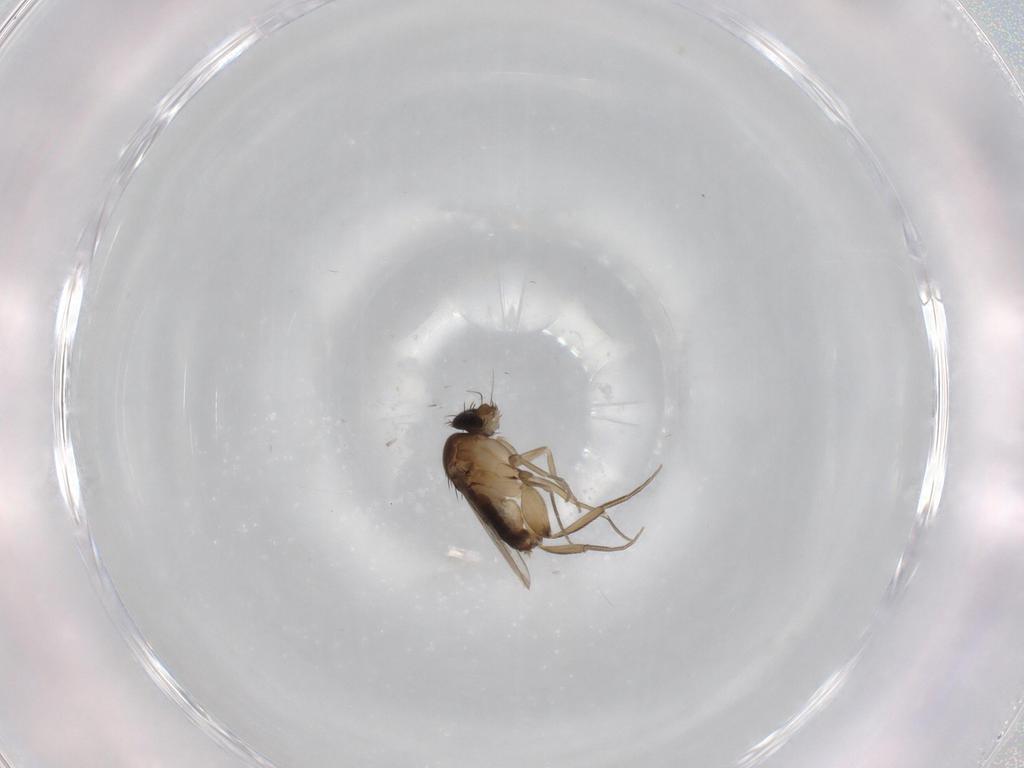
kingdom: Animalia
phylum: Arthropoda
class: Insecta
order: Diptera
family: Phoridae
